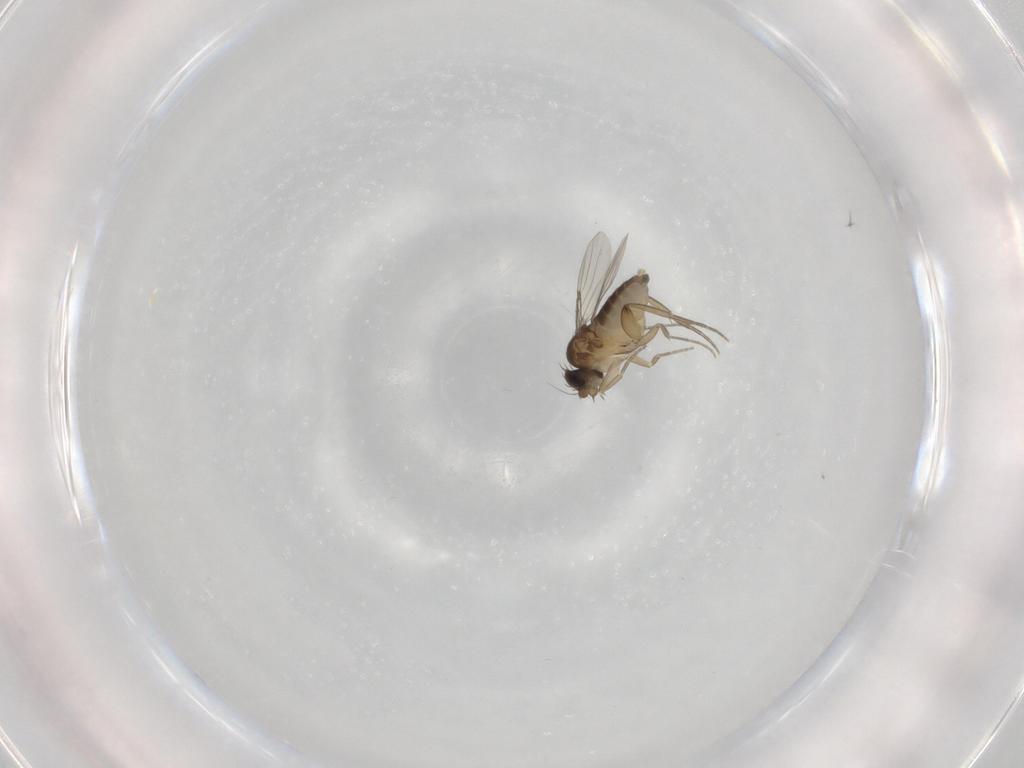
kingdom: Animalia
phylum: Arthropoda
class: Insecta
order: Diptera
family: Phoridae
